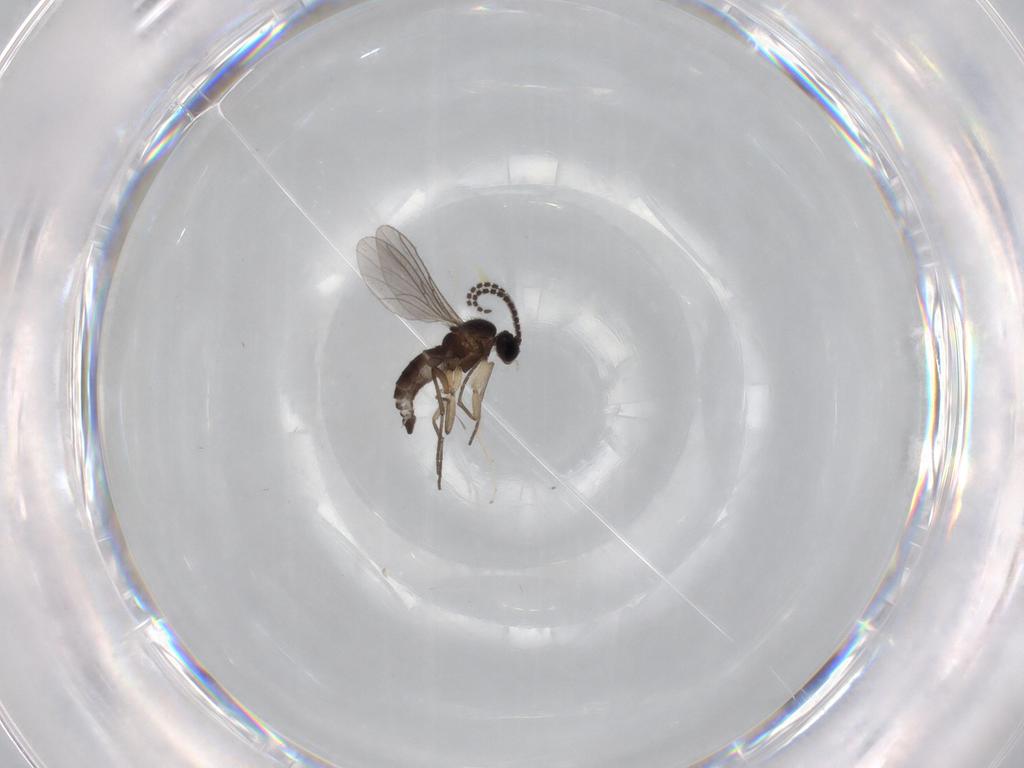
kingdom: Animalia
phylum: Arthropoda
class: Insecta
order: Diptera
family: Sciaridae
